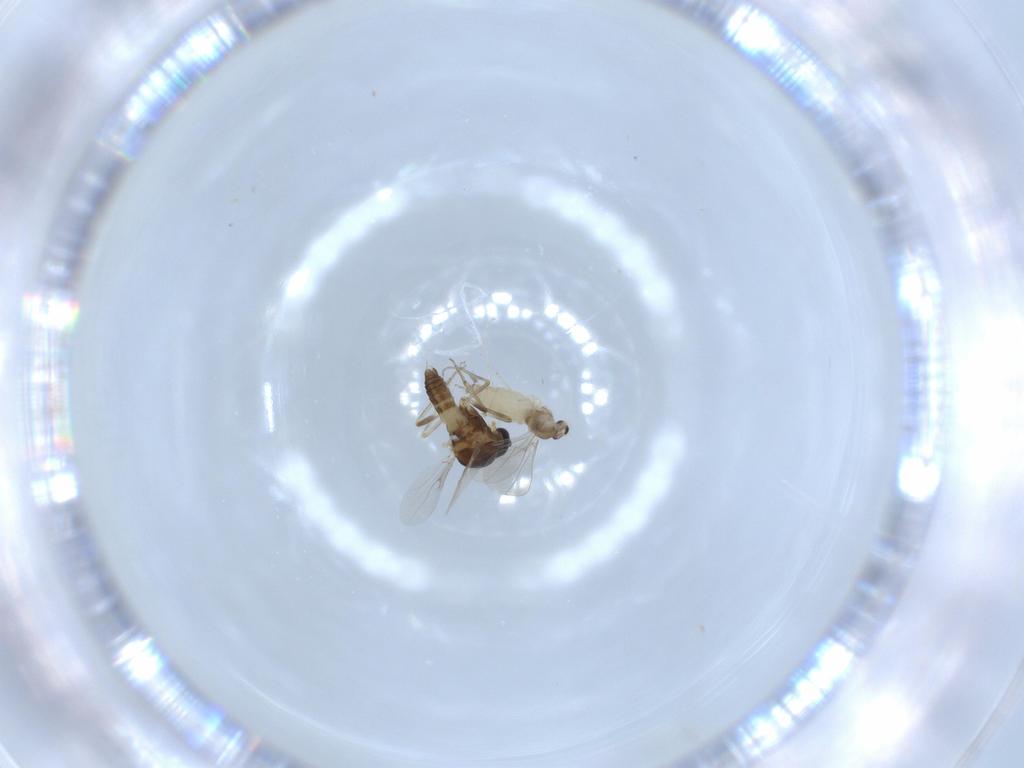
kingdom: Animalia
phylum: Arthropoda
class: Insecta
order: Diptera
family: Cecidomyiidae
